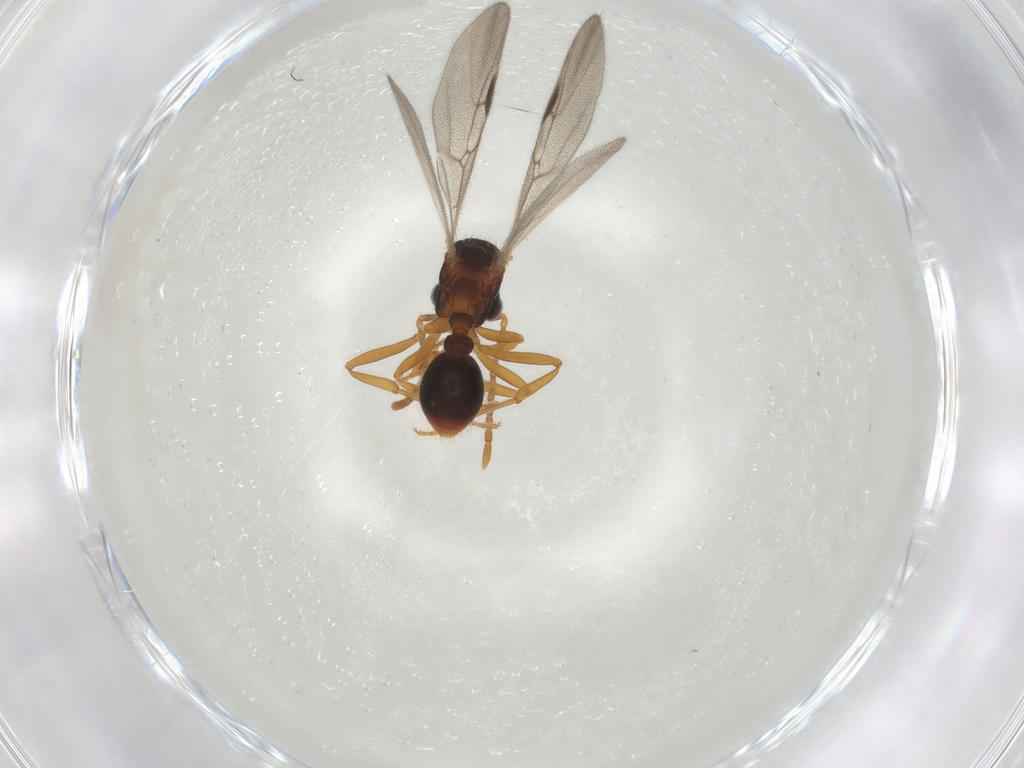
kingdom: Animalia
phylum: Arthropoda
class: Insecta
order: Hymenoptera
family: Formicidae
